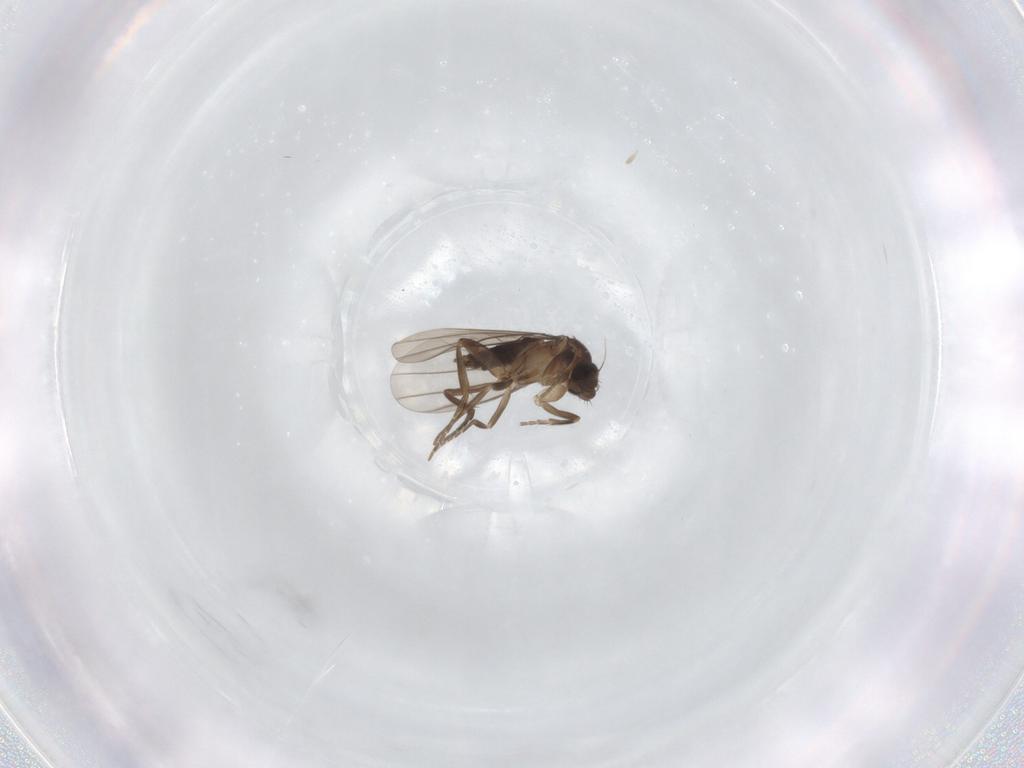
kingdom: Animalia
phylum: Arthropoda
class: Insecta
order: Diptera
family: Phoridae
